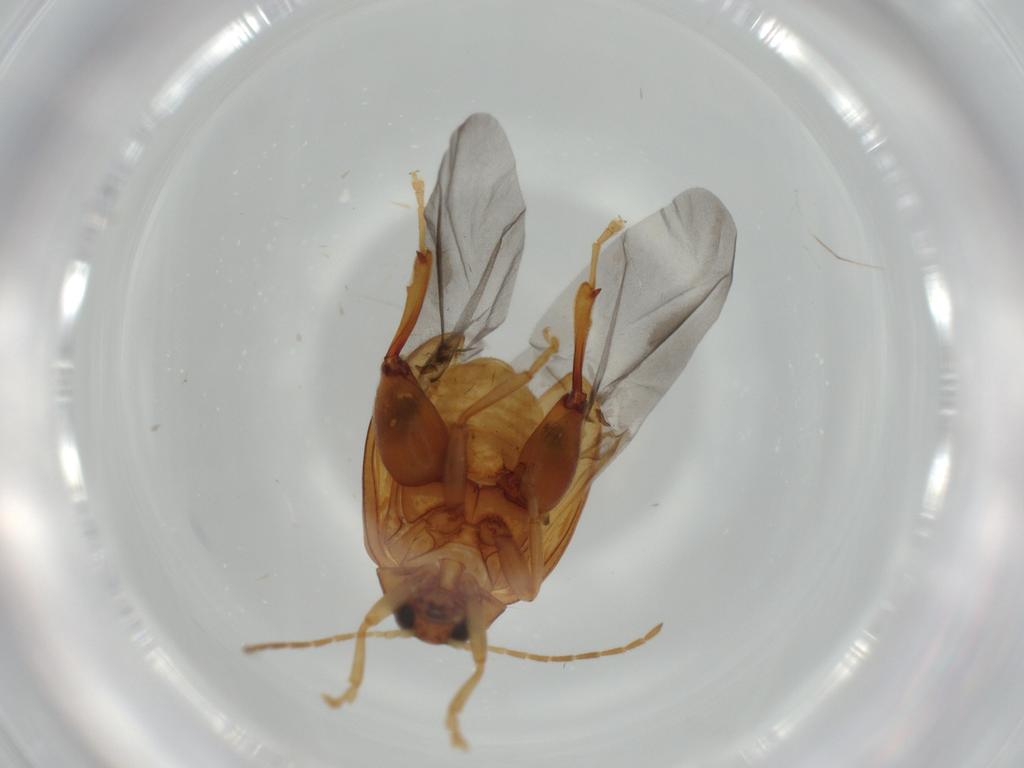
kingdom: Animalia
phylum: Arthropoda
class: Insecta
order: Coleoptera
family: Chrysomelidae
